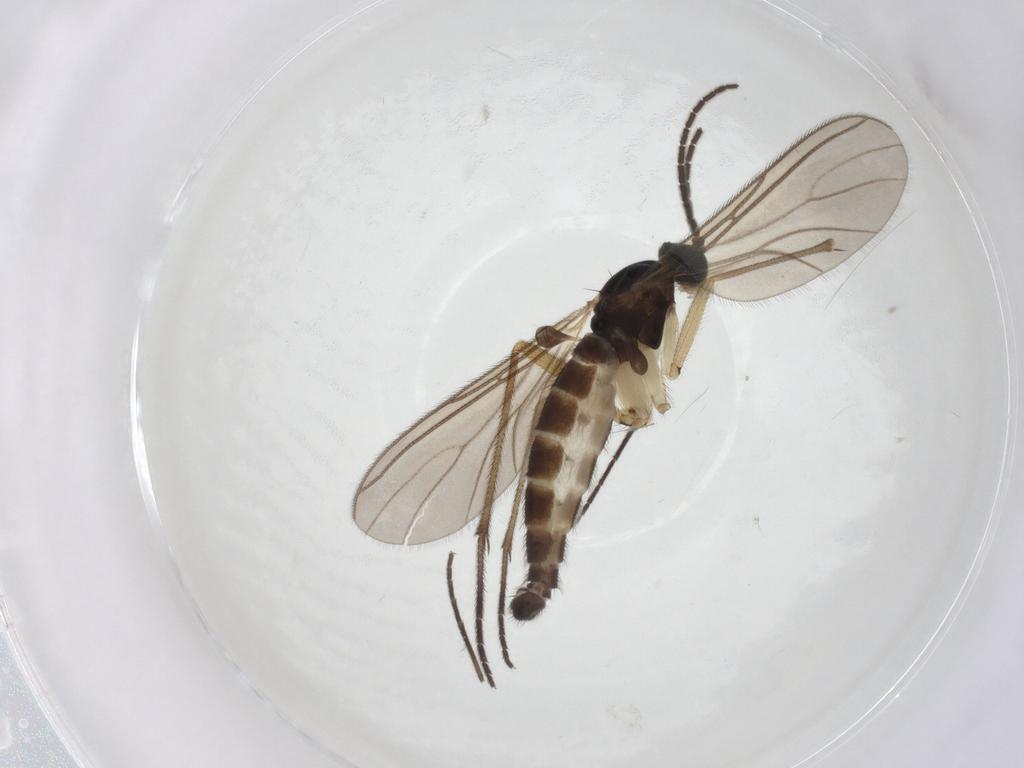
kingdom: Animalia
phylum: Arthropoda
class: Insecta
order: Diptera
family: Sciaridae
